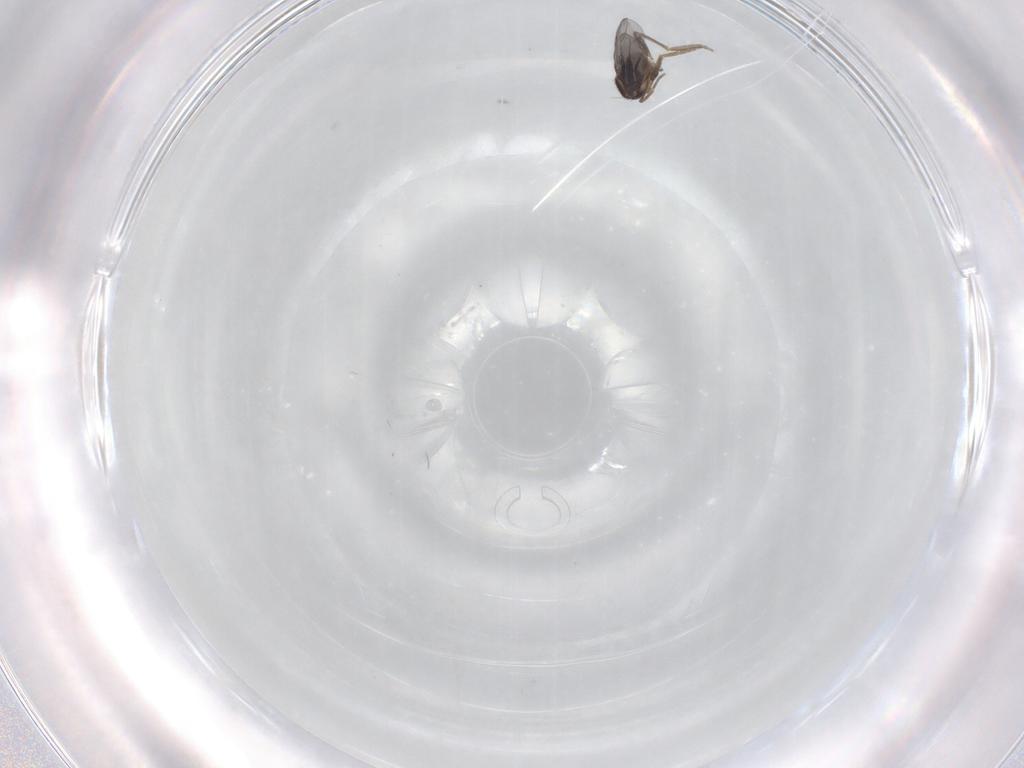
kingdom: Animalia
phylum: Arthropoda
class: Insecta
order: Diptera
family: Phoridae
